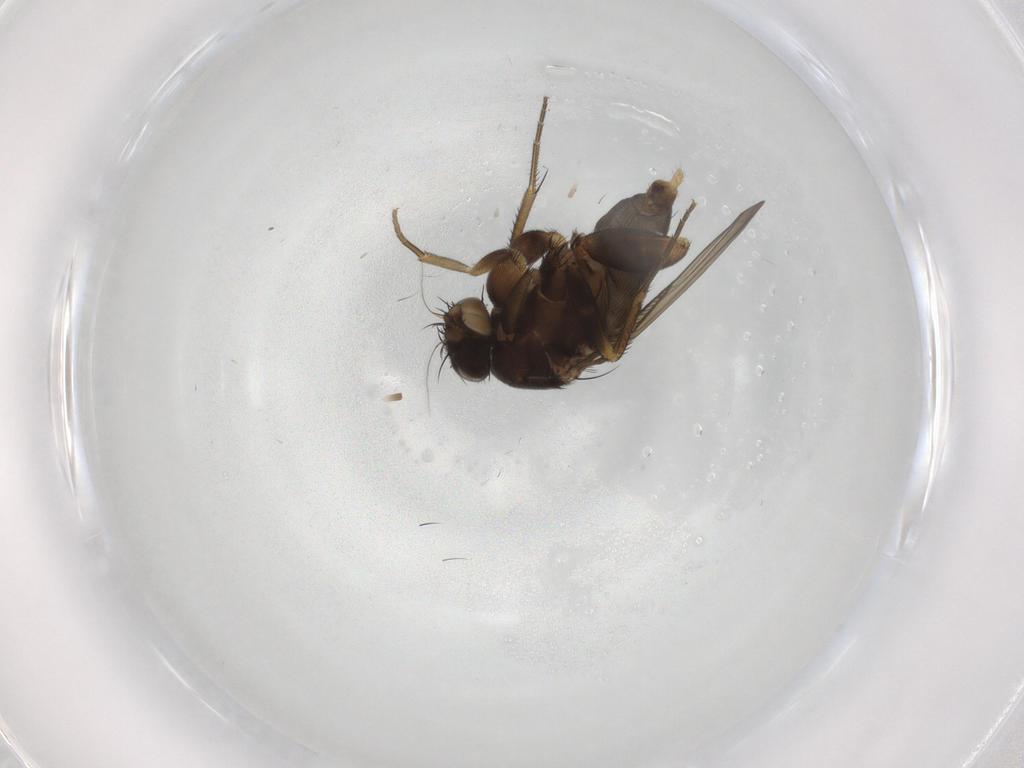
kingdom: Animalia
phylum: Arthropoda
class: Insecta
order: Diptera
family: Phoridae
